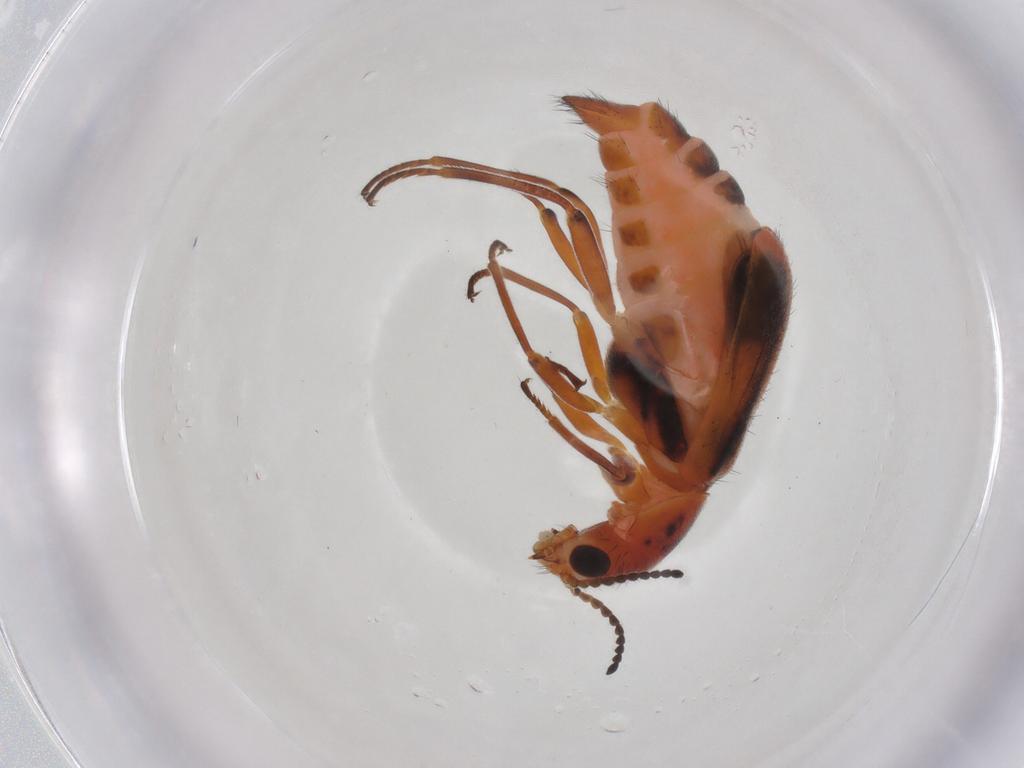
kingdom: Animalia
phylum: Arthropoda
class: Insecta
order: Coleoptera
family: Melyridae
